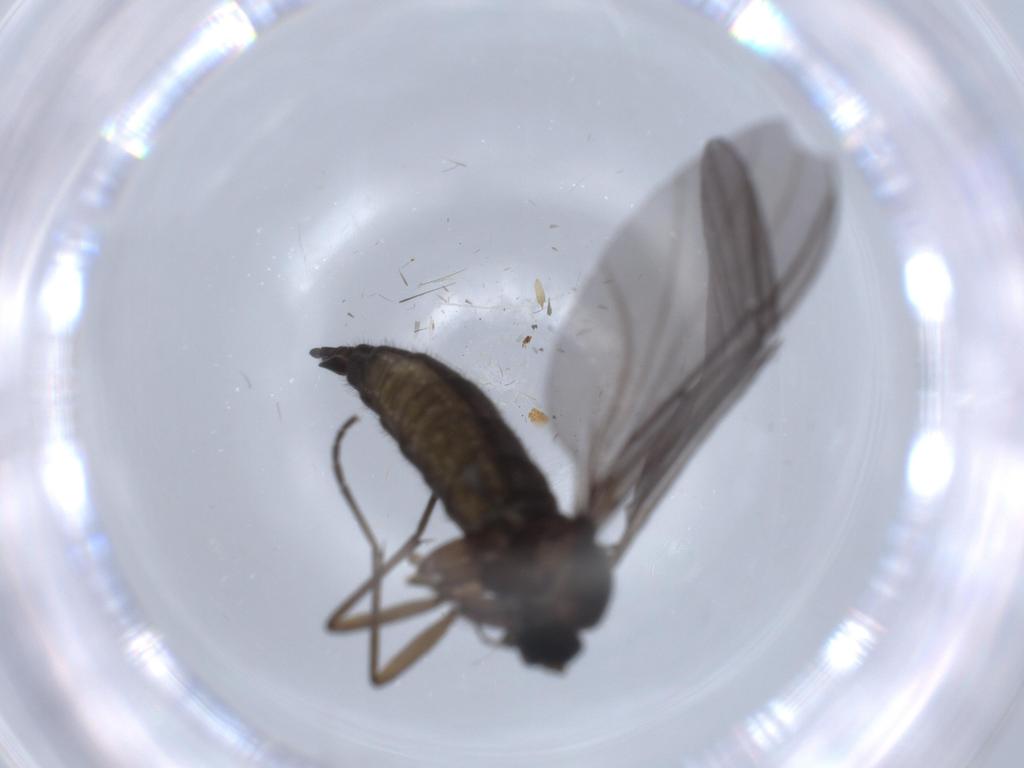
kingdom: Animalia
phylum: Arthropoda
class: Insecta
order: Diptera
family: Sciaridae
